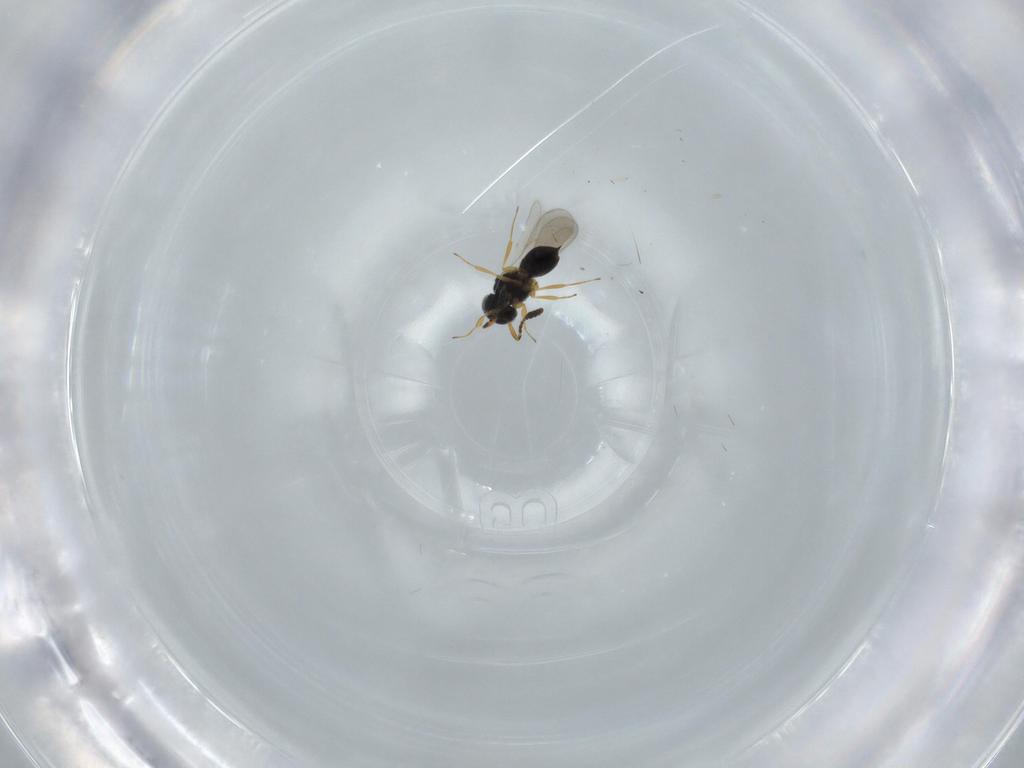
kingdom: Animalia
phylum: Arthropoda
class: Insecta
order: Hymenoptera
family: Scelionidae
